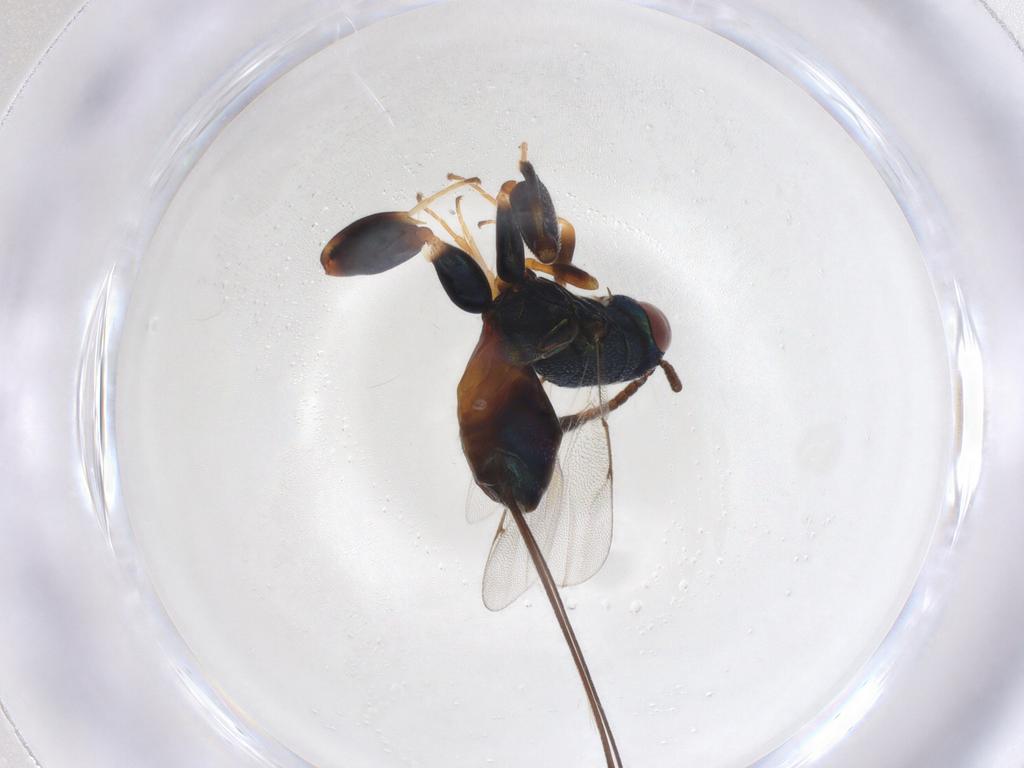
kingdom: Animalia
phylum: Arthropoda
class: Insecta
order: Hymenoptera
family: Torymidae
